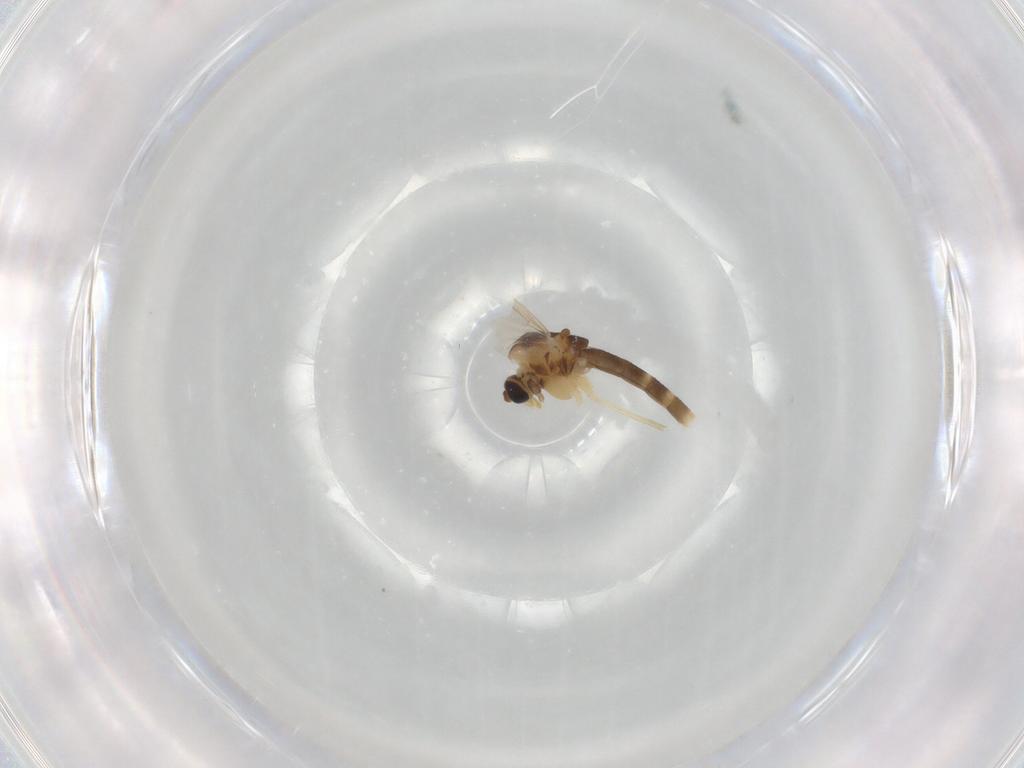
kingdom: Animalia
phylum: Arthropoda
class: Insecta
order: Diptera
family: Chironomidae
